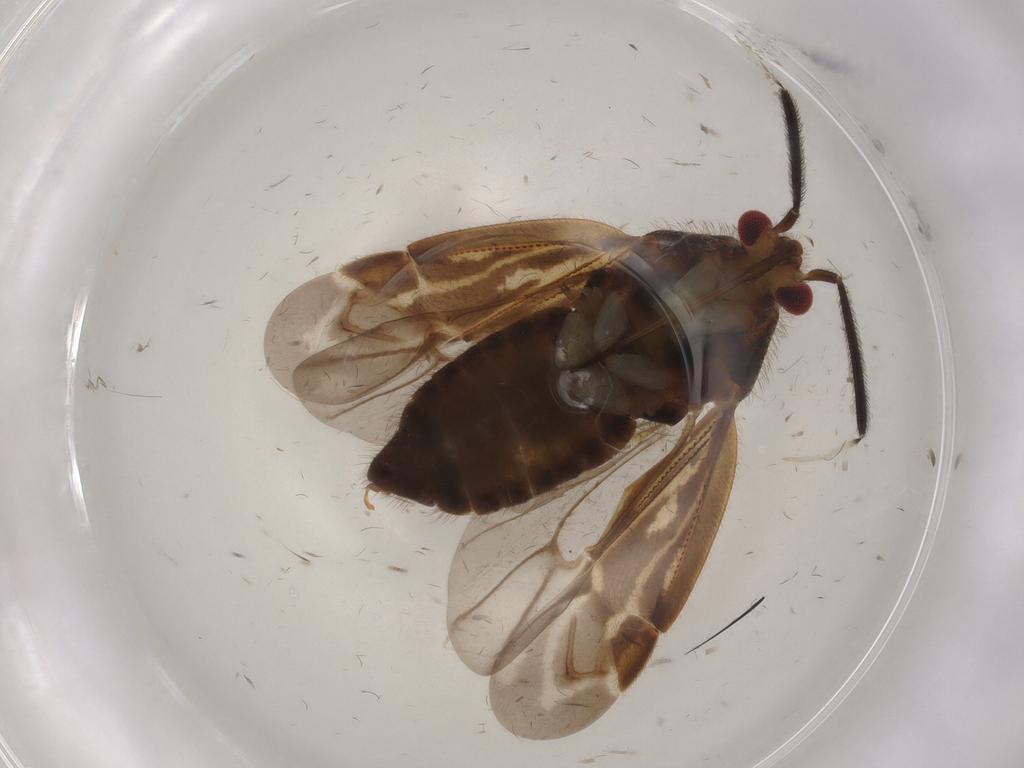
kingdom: Animalia
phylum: Arthropoda
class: Insecta
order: Hemiptera
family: Miridae
